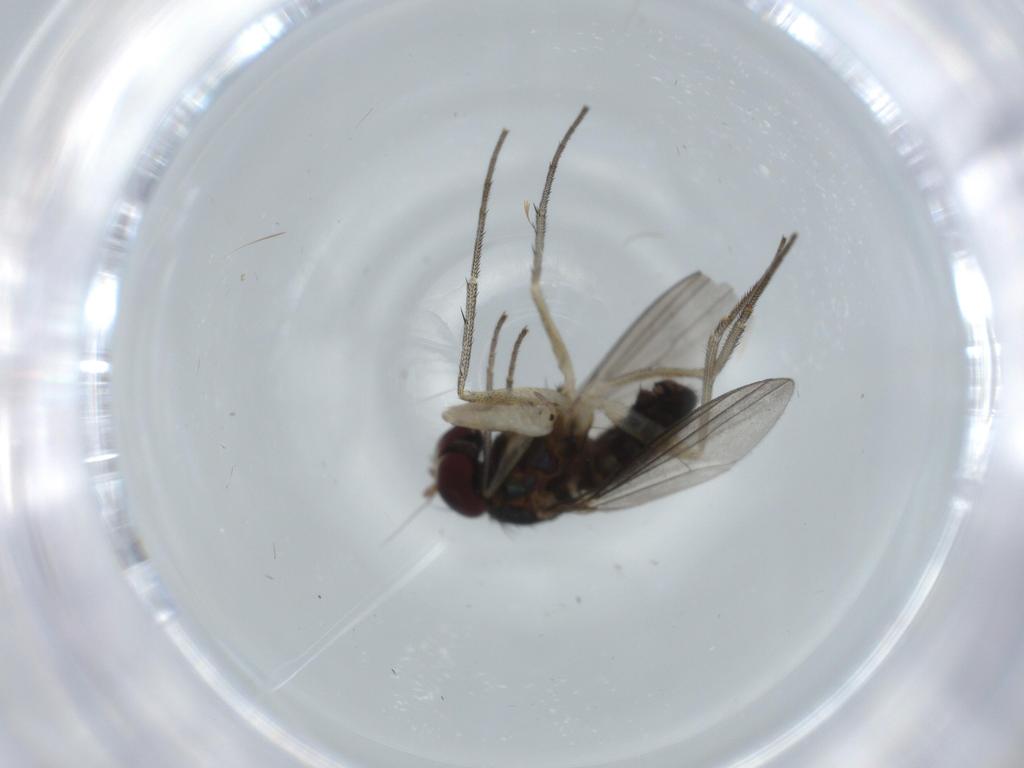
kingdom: Animalia
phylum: Arthropoda
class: Insecta
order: Diptera
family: Dolichopodidae
